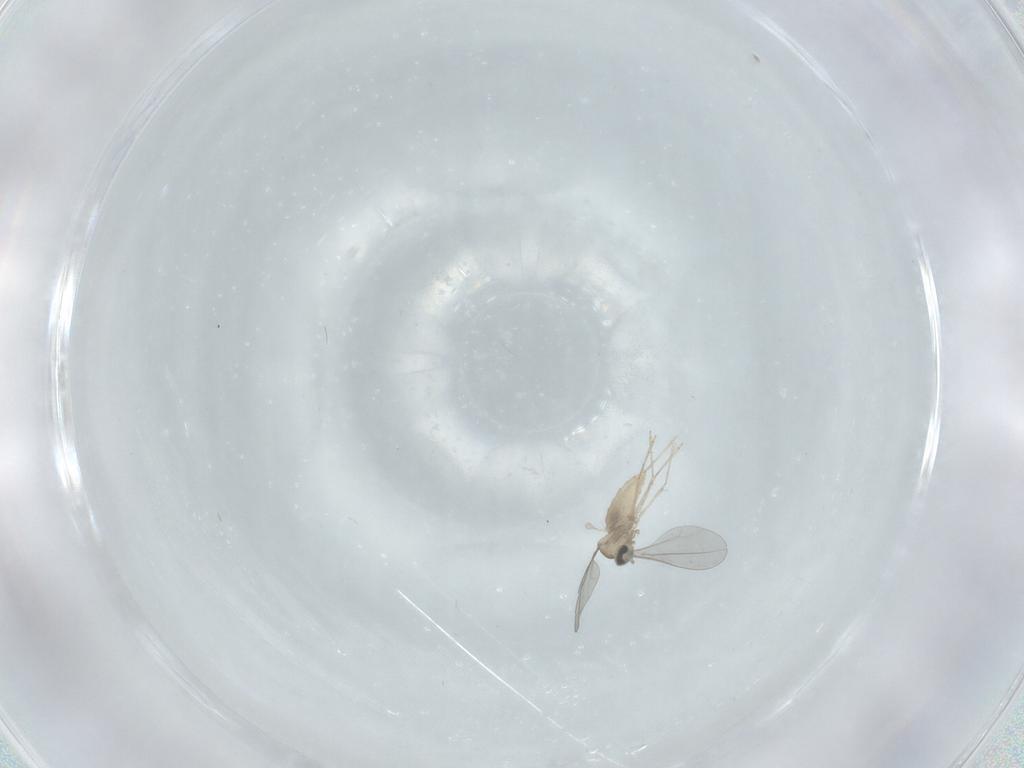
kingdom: Animalia
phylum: Arthropoda
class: Insecta
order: Diptera
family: Cecidomyiidae
